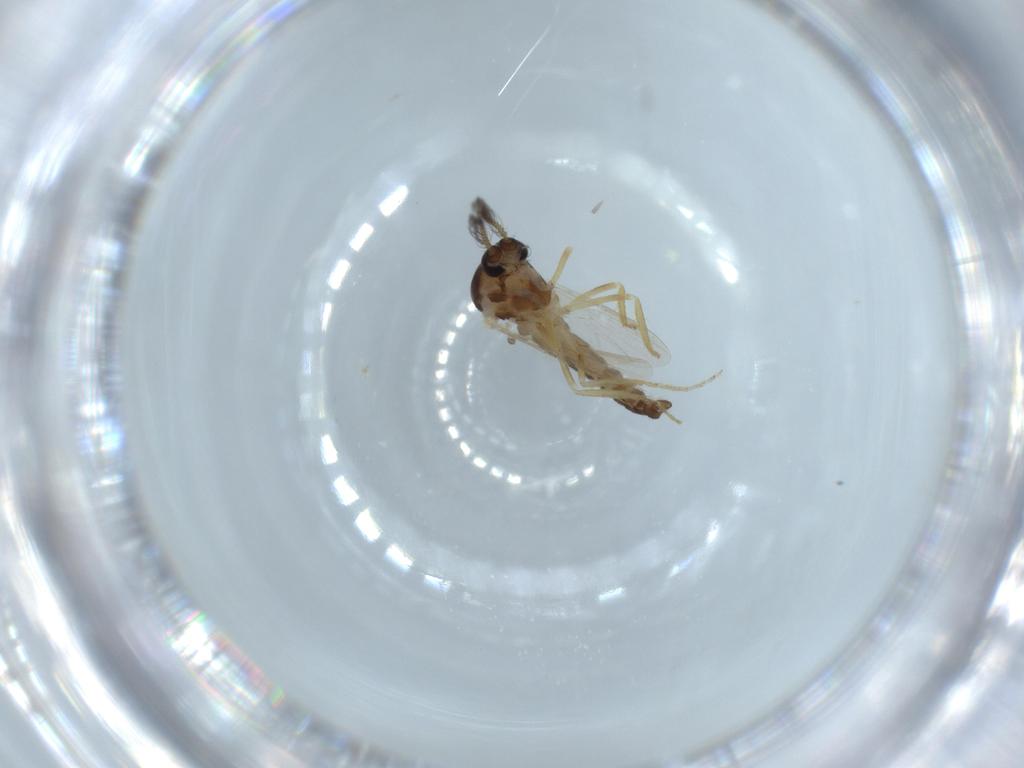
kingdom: Animalia
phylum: Arthropoda
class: Insecta
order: Diptera
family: Ceratopogonidae
